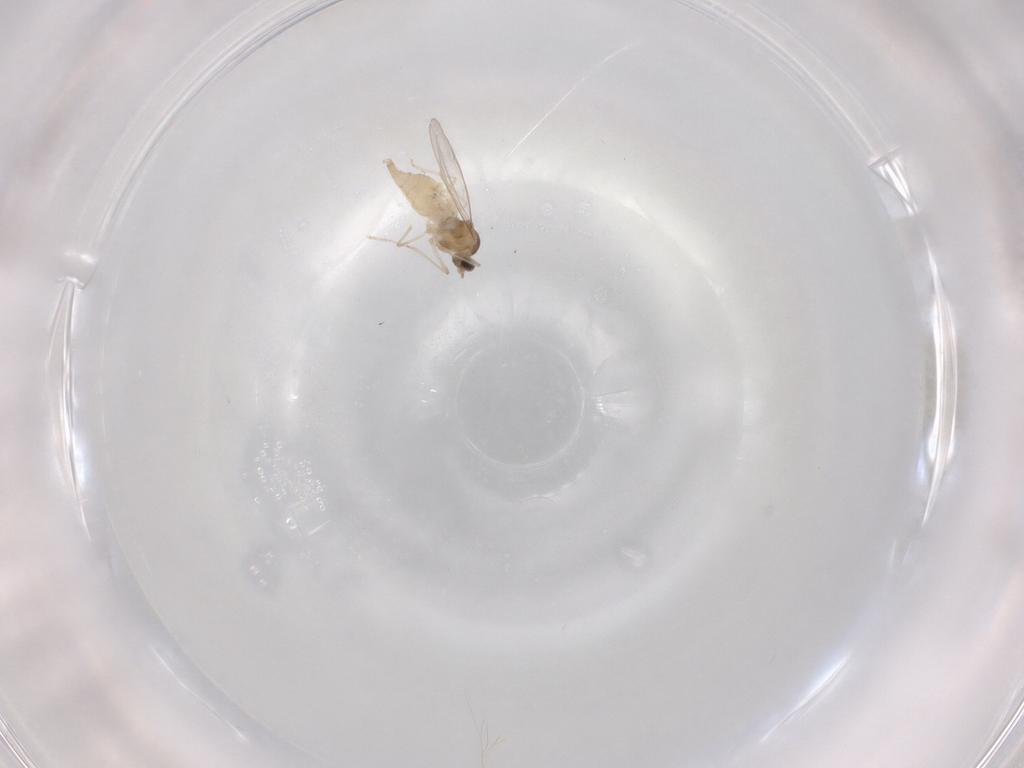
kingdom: Animalia
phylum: Arthropoda
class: Insecta
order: Diptera
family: Cecidomyiidae
